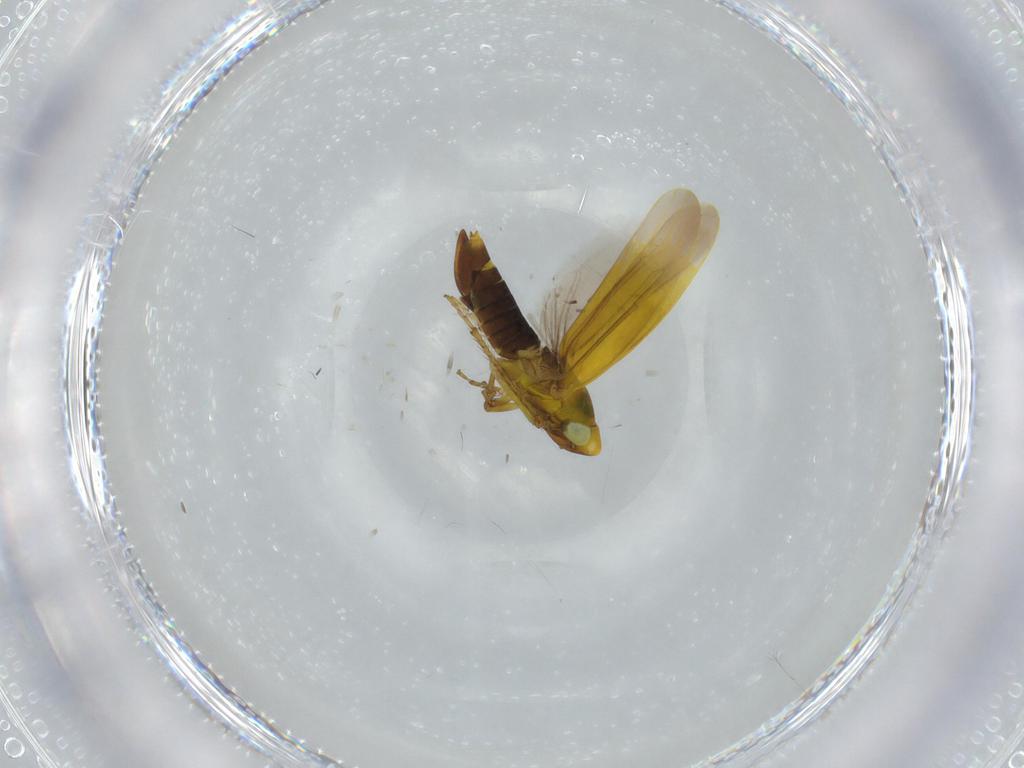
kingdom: Animalia
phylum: Arthropoda
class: Insecta
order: Hemiptera
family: Cicadellidae
